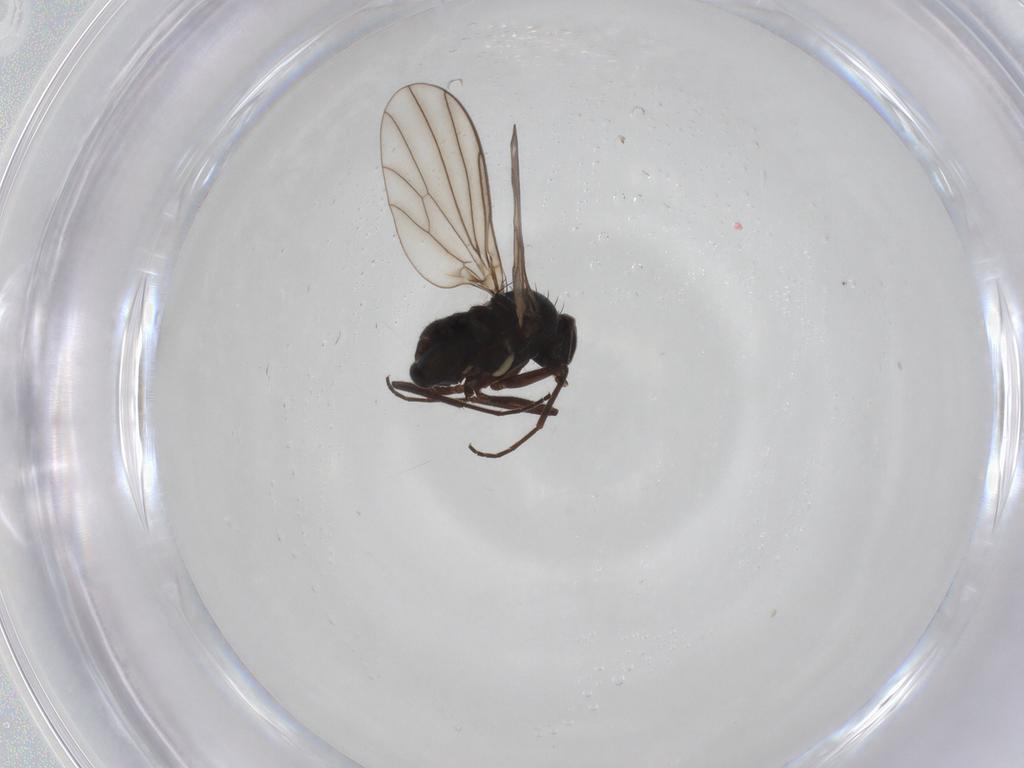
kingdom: Animalia
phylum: Arthropoda
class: Insecta
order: Diptera
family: Dolichopodidae
